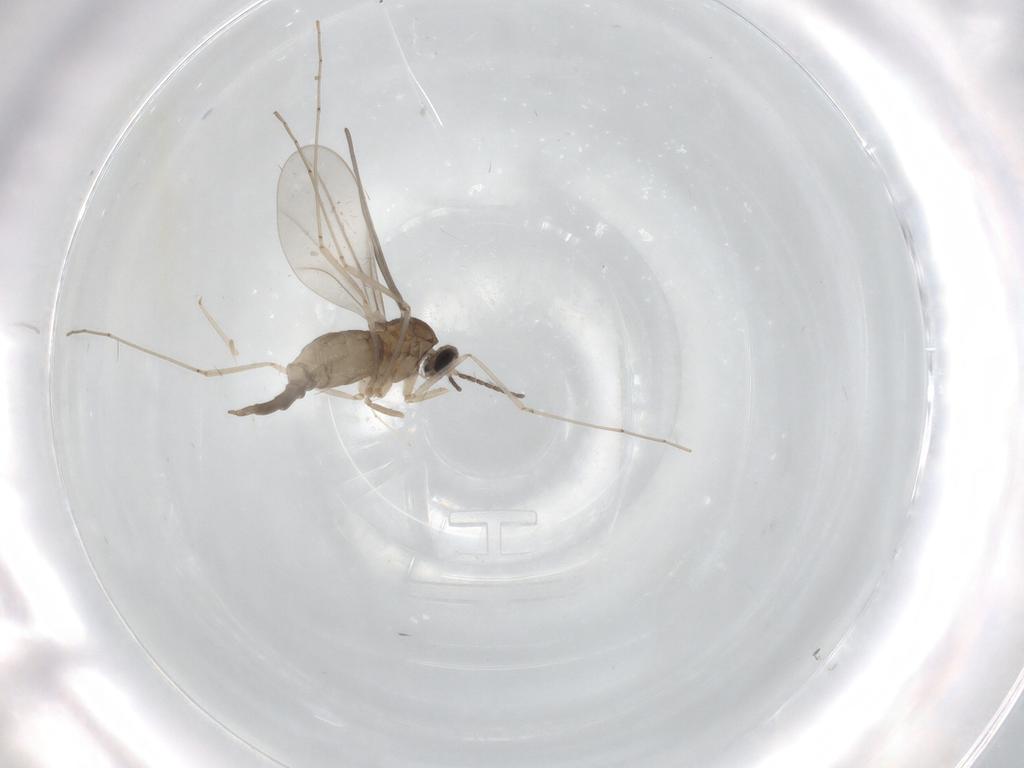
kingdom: Animalia
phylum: Arthropoda
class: Insecta
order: Diptera
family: Cecidomyiidae
